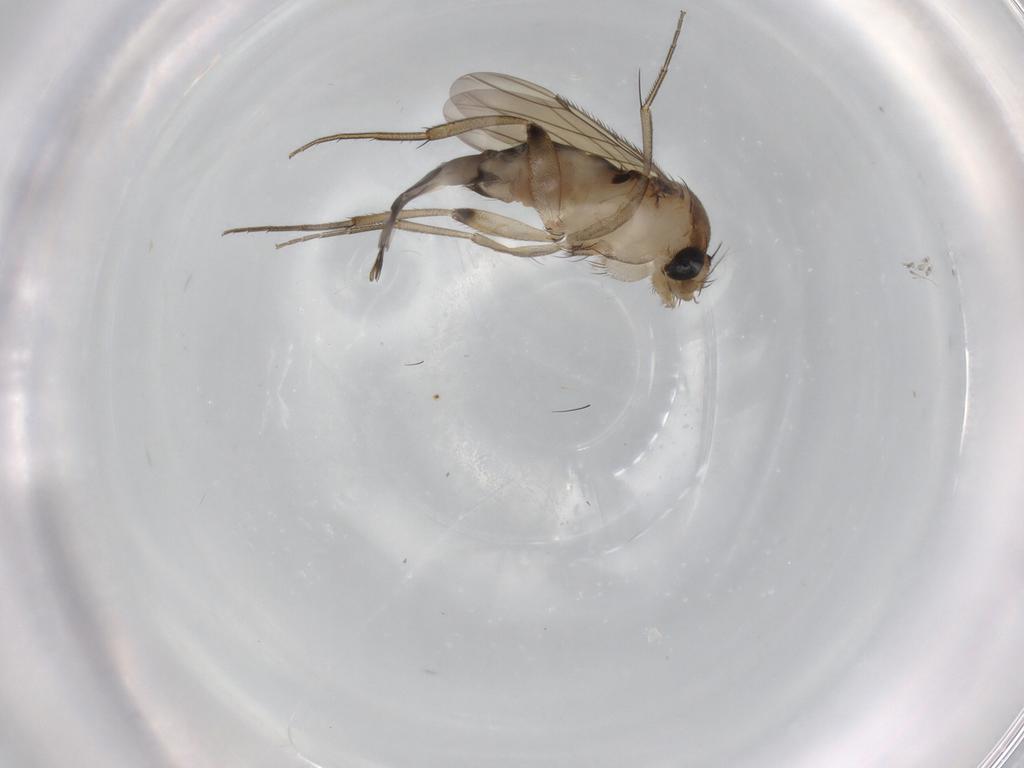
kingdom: Animalia
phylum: Arthropoda
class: Insecta
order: Diptera
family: Phoridae
